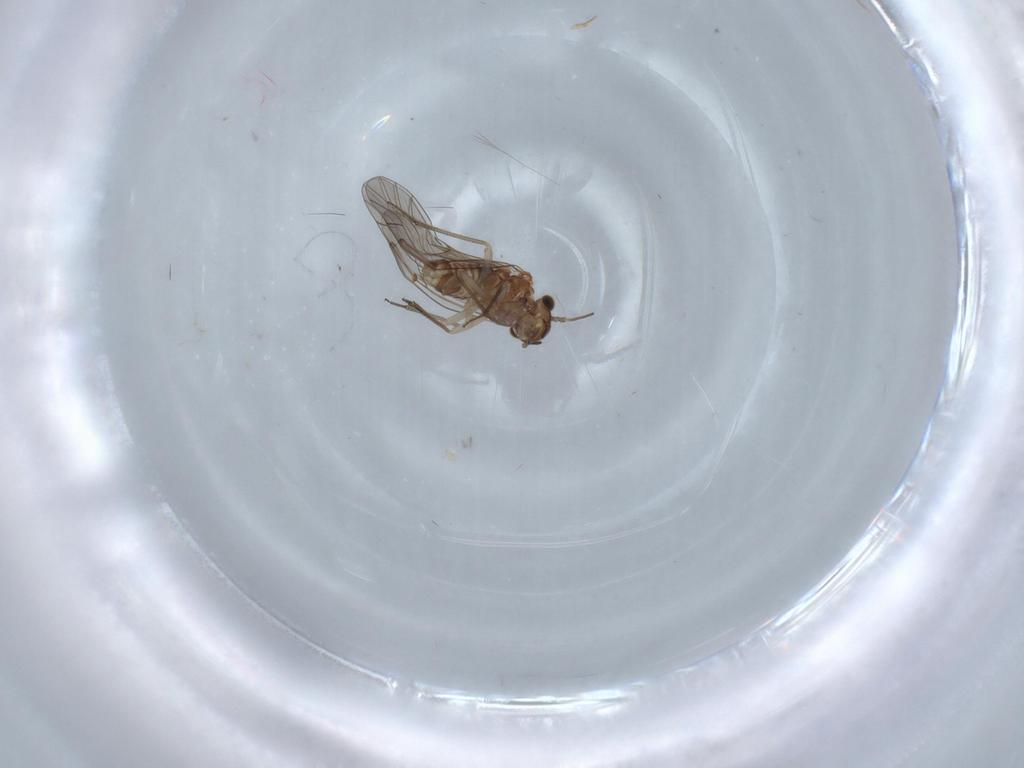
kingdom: Animalia
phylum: Arthropoda
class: Insecta
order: Psocodea
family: Lachesillidae
